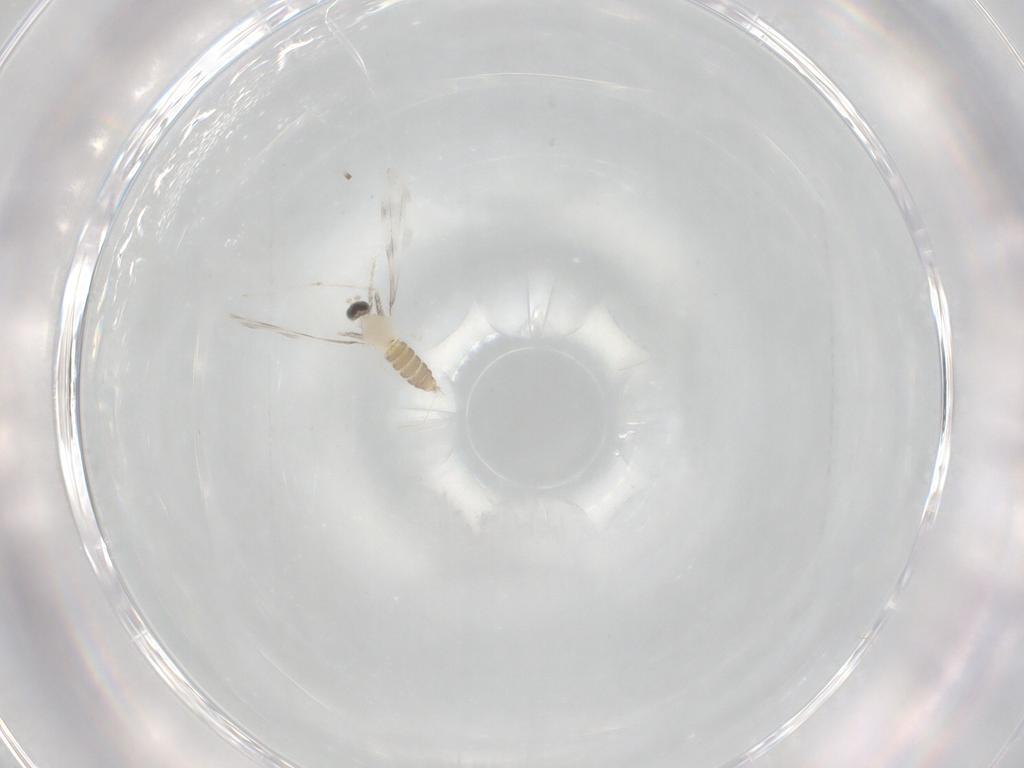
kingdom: Animalia
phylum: Arthropoda
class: Insecta
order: Diptera
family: Cecidomyiidae
